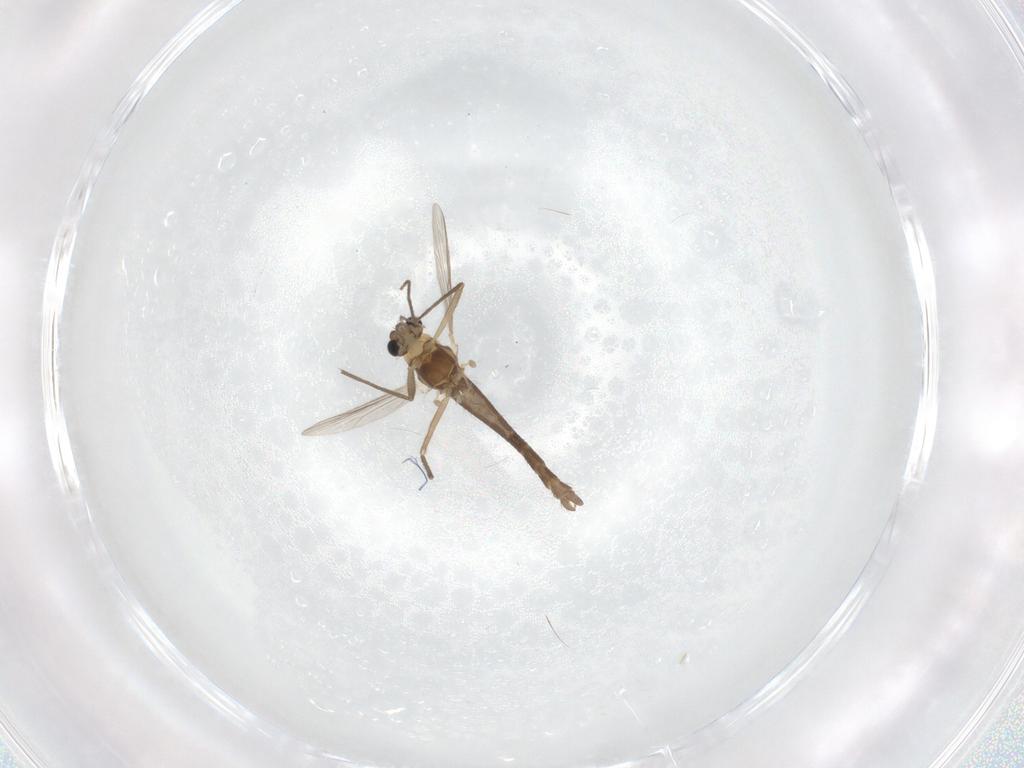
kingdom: Animalia
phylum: Arthropoda
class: Insecta
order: Diptera
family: Chironomidae
